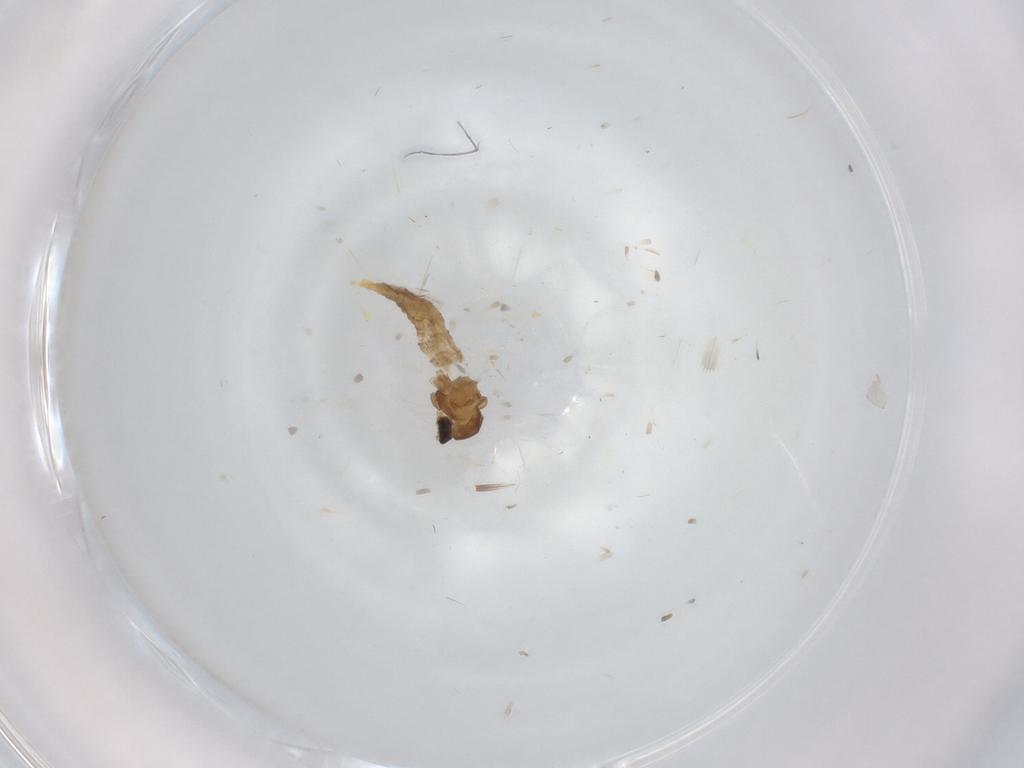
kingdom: Animalia
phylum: Arthropoda
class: Insecta
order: Diptera
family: Cecidomyiidae
